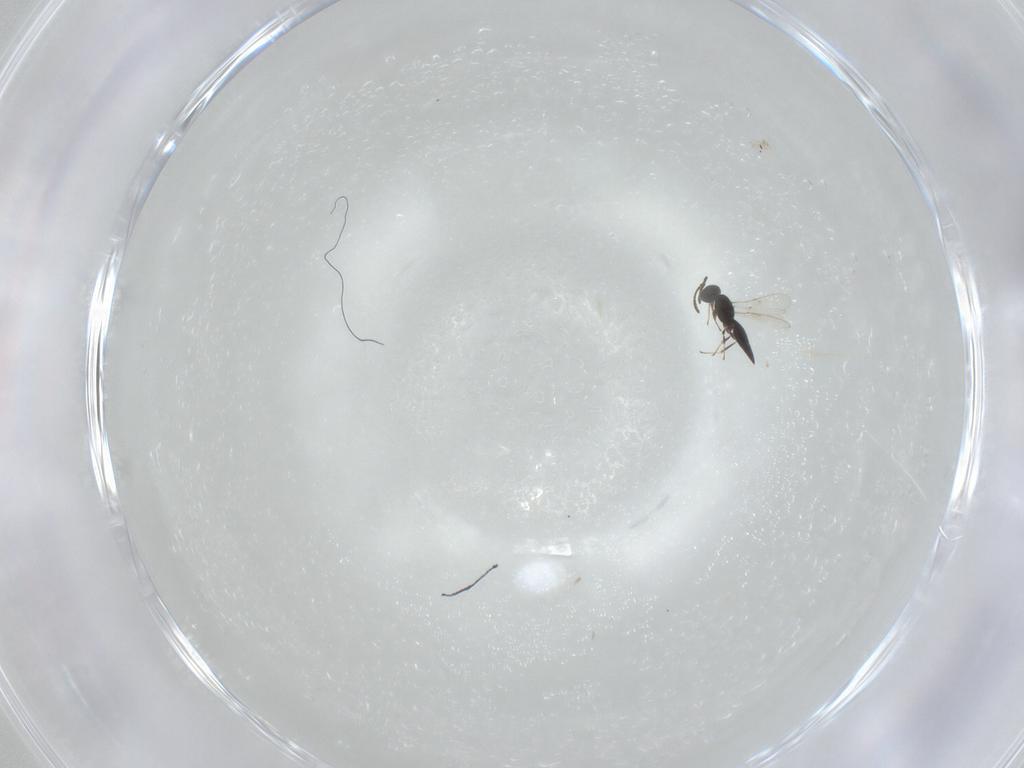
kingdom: Animalia
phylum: Arthropoda
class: Insecta
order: Hymenoptera
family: Scelionidae
